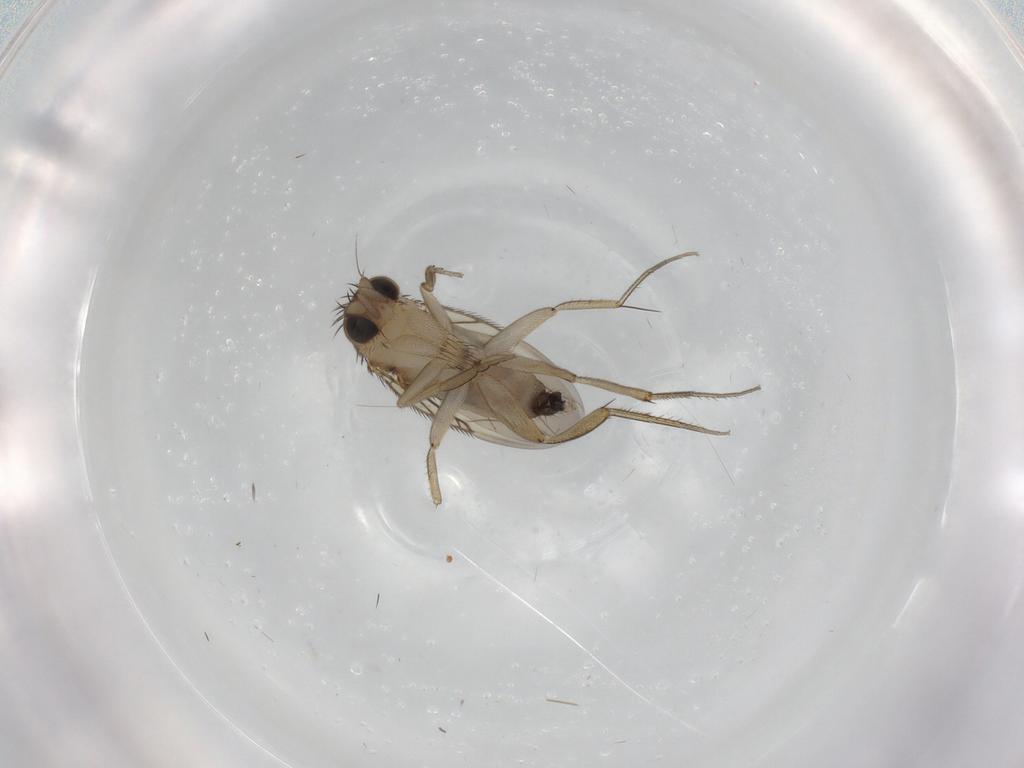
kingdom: Animalia
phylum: Arthropoda
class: Insecta
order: Diptera
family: Phoridae
